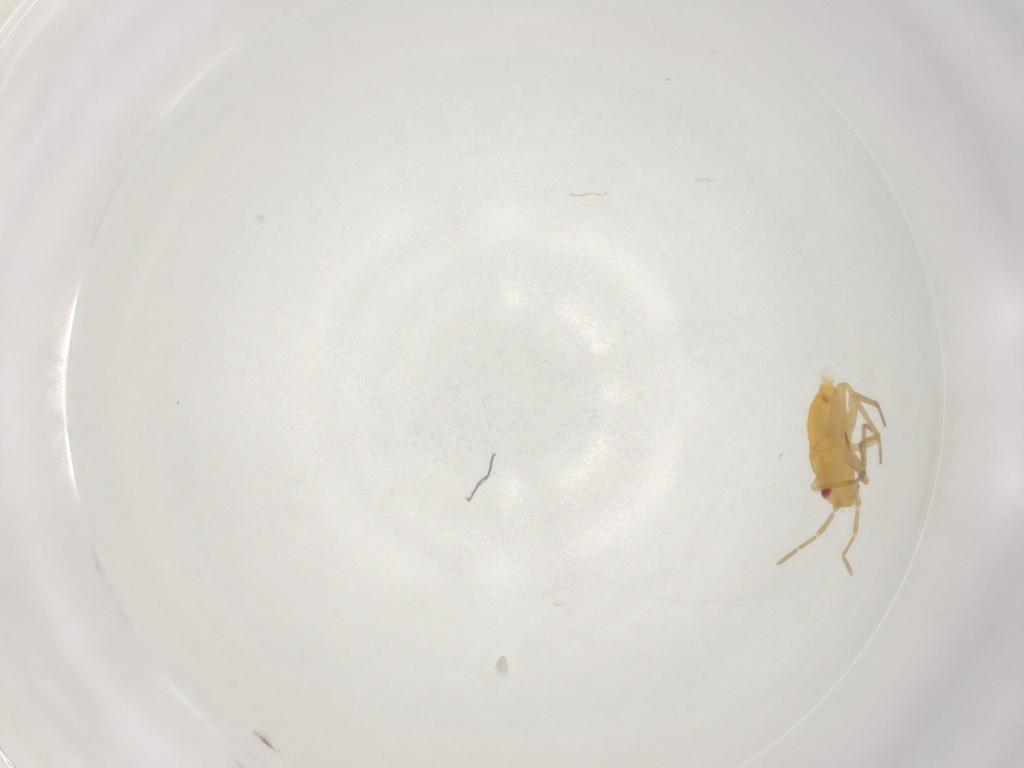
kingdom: Animalia
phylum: Arthropoda
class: Insecta
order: Hemiptera
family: Miridae
